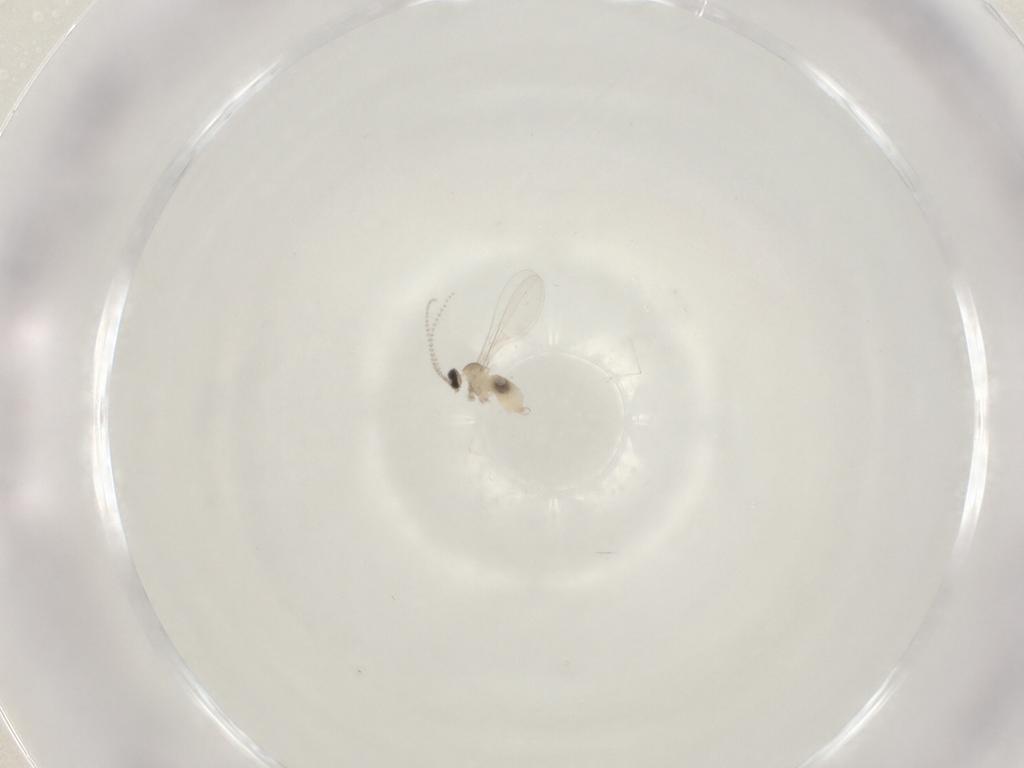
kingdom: Animalia
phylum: Arthropoda
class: Insecta
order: Diptera
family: Cecidomyiidae
